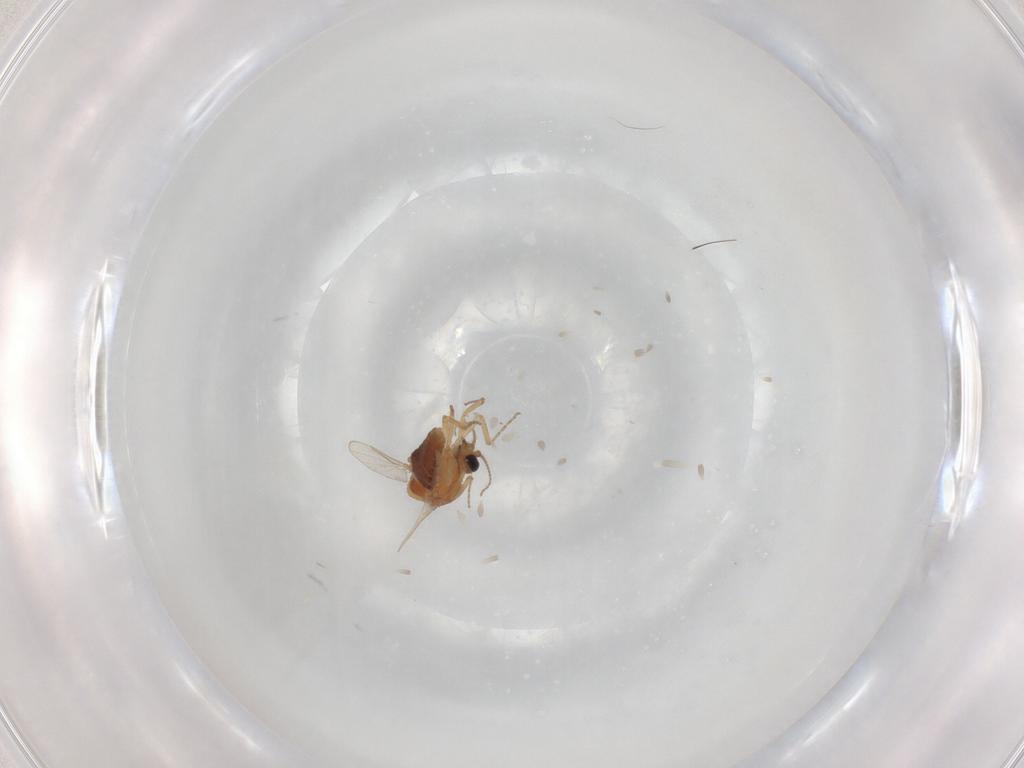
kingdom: Animalia
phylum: Arthropoda
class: Insecta
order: Diptera
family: Ceratopogonidae
